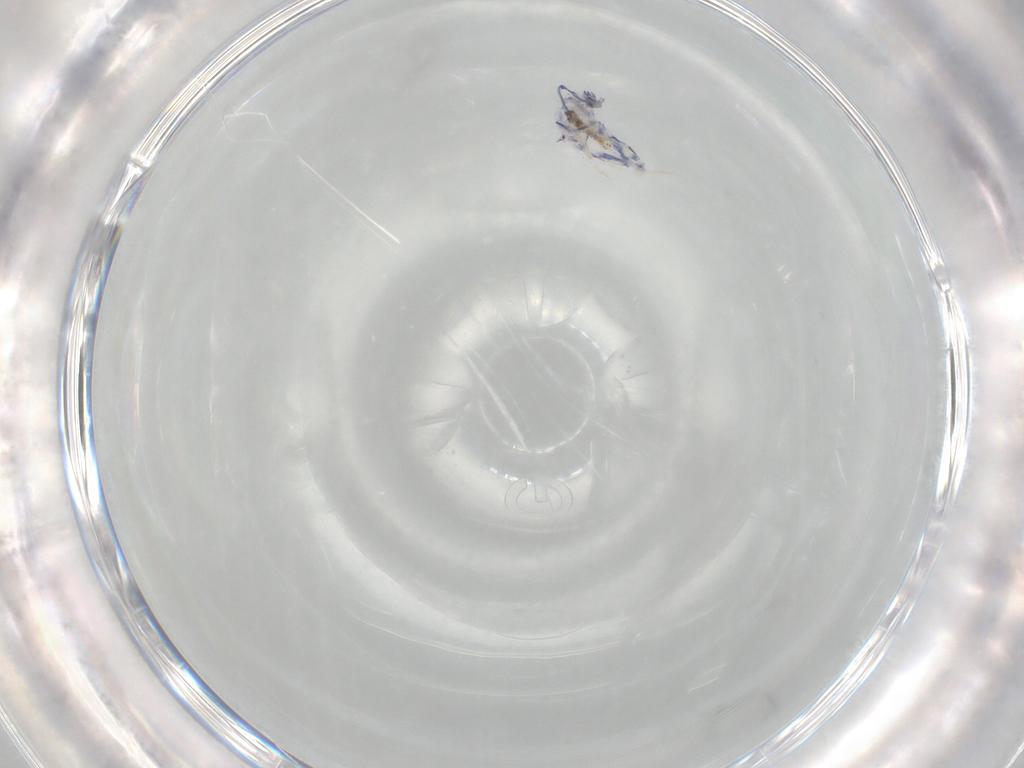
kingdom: Animalia
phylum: Arthropoda
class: Collembola
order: Entomobryomorpha
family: Entomobryidae
